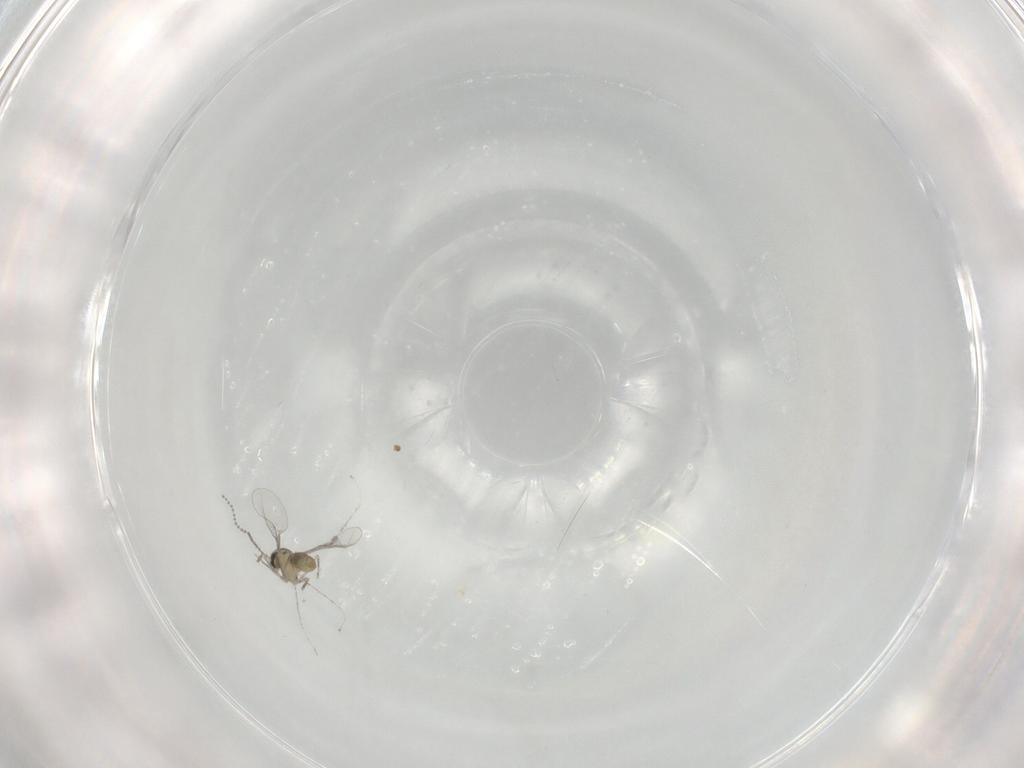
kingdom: Animalia
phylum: Arthropoda
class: Insecta
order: Diptera
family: Cecidomyiidae
